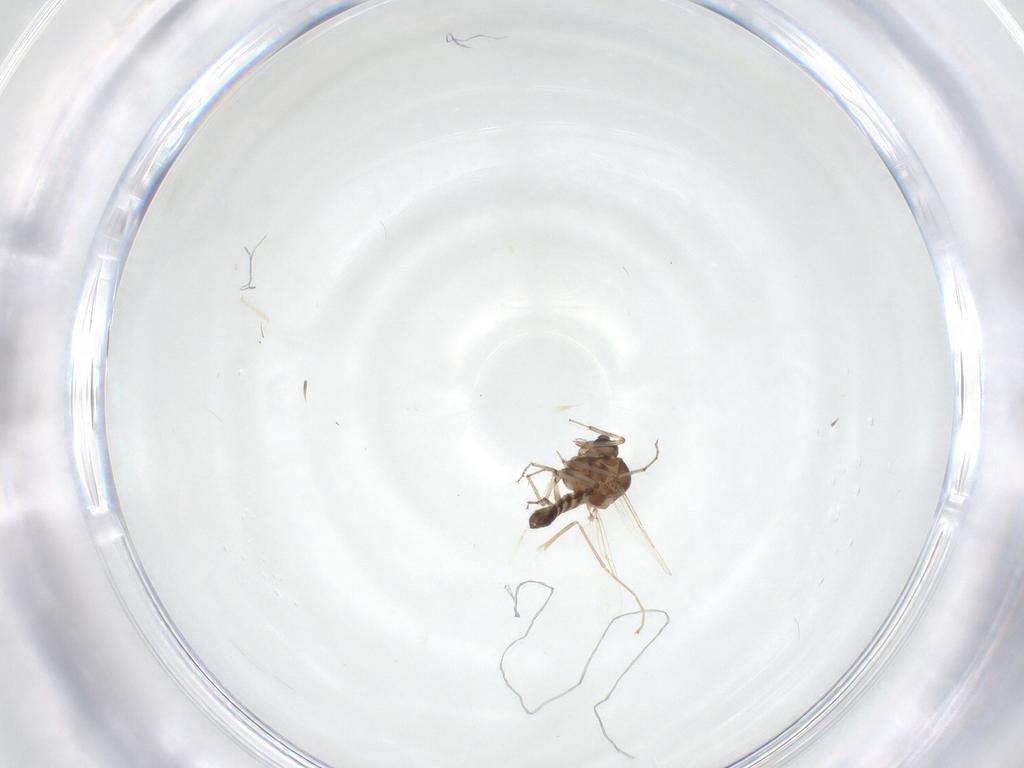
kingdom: Animalia
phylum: Arthropoda
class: Insecta
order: Diptera
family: Ceratopogonidae
